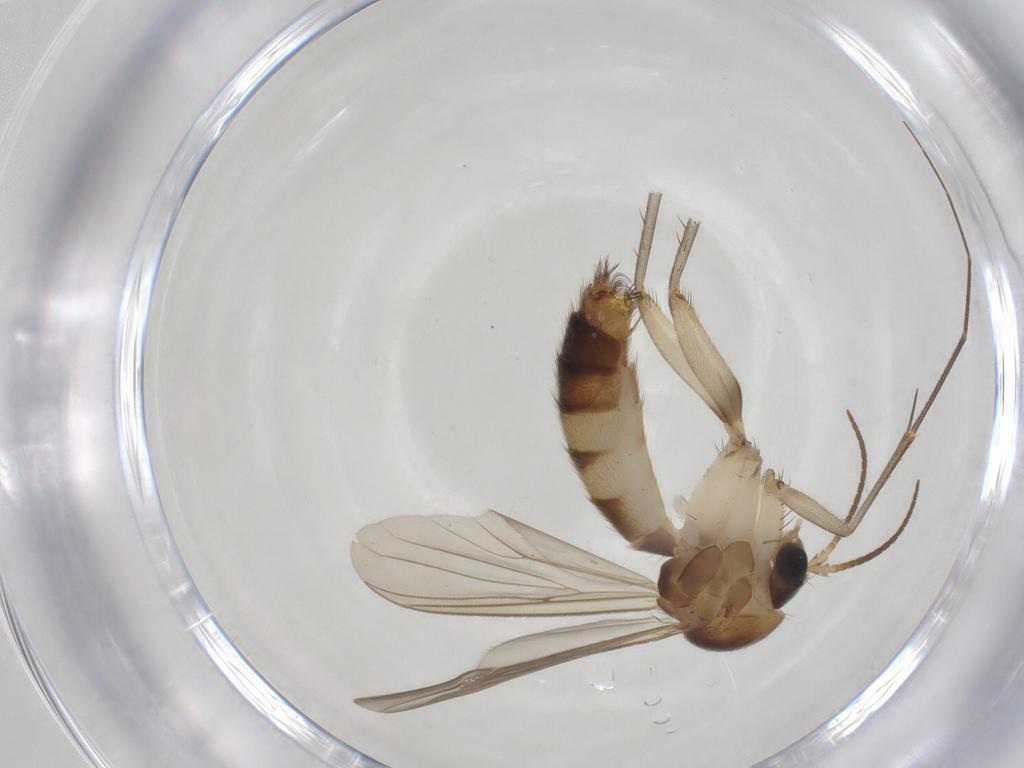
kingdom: Animalia
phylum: Arthropoda
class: Insecta
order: Diptera
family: Mycetophilidae
